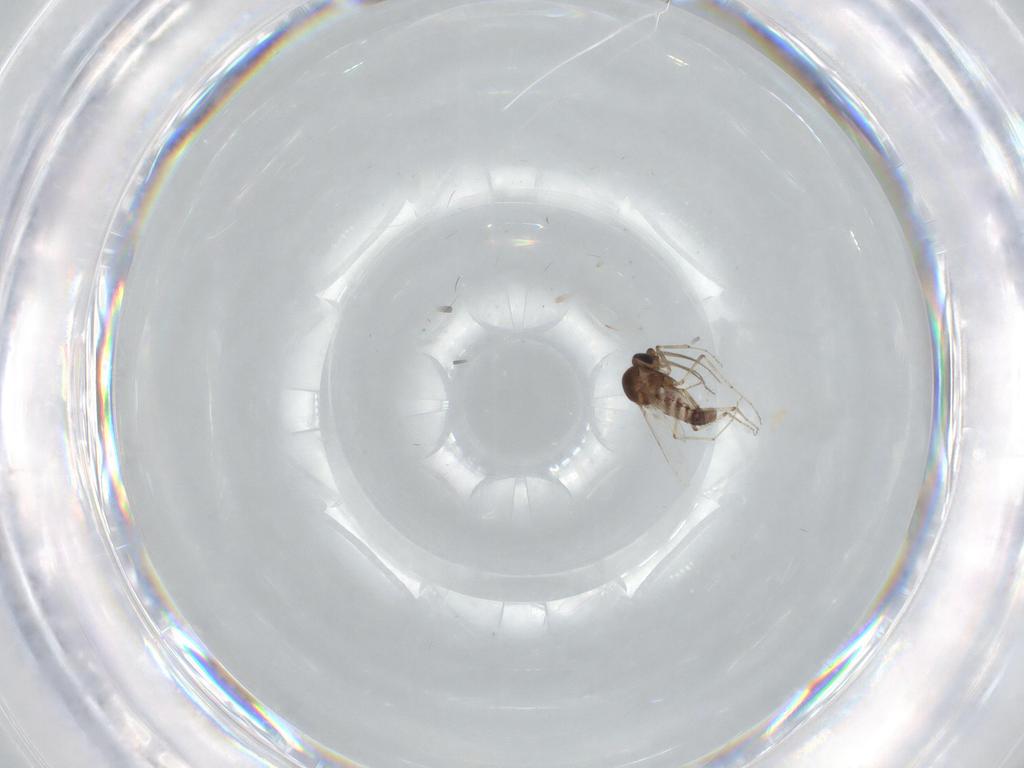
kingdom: Animalia
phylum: Arthropoda
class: Insecta
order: Diptera
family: Ceratopogonidae
